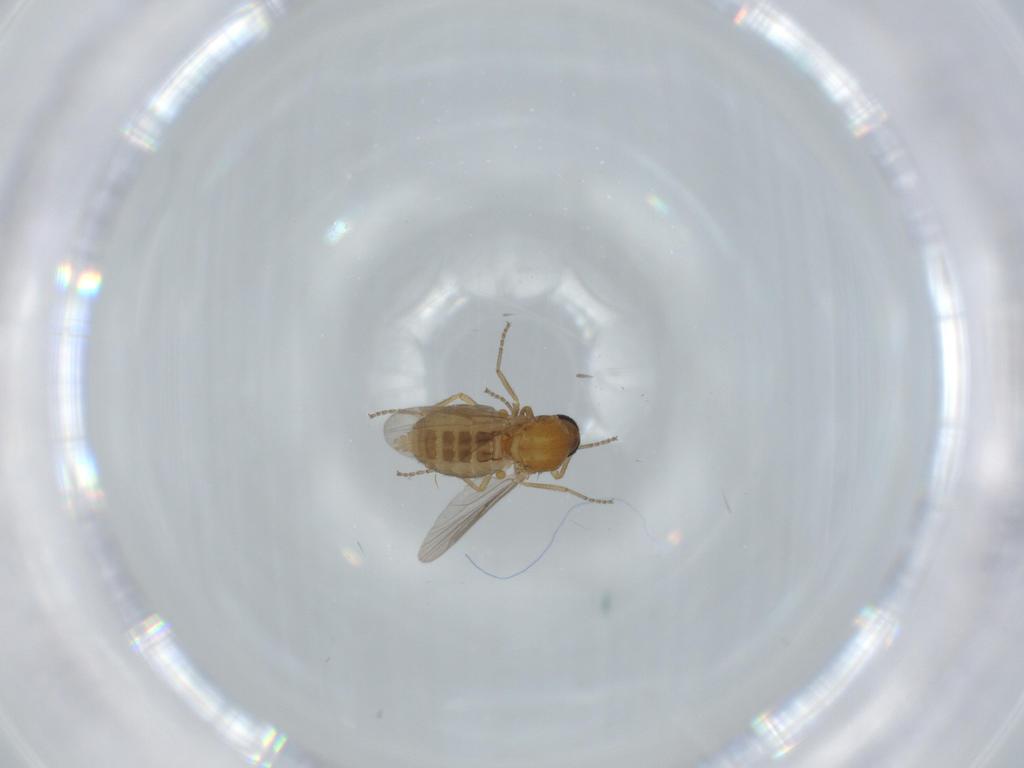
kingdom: Animalia
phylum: Arthropoda
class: Insecta
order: Diptera
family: Ceratopogonidae
